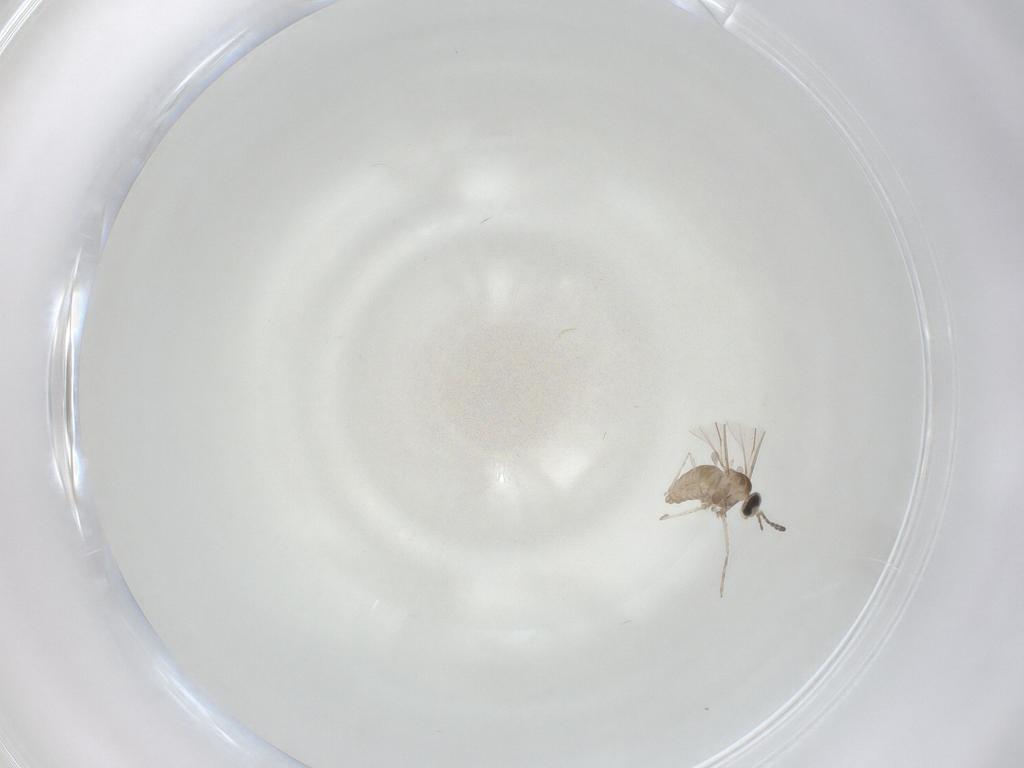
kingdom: Animalia
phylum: Arthropoda
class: Insecta
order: Diptera
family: Cecidomyiidae
